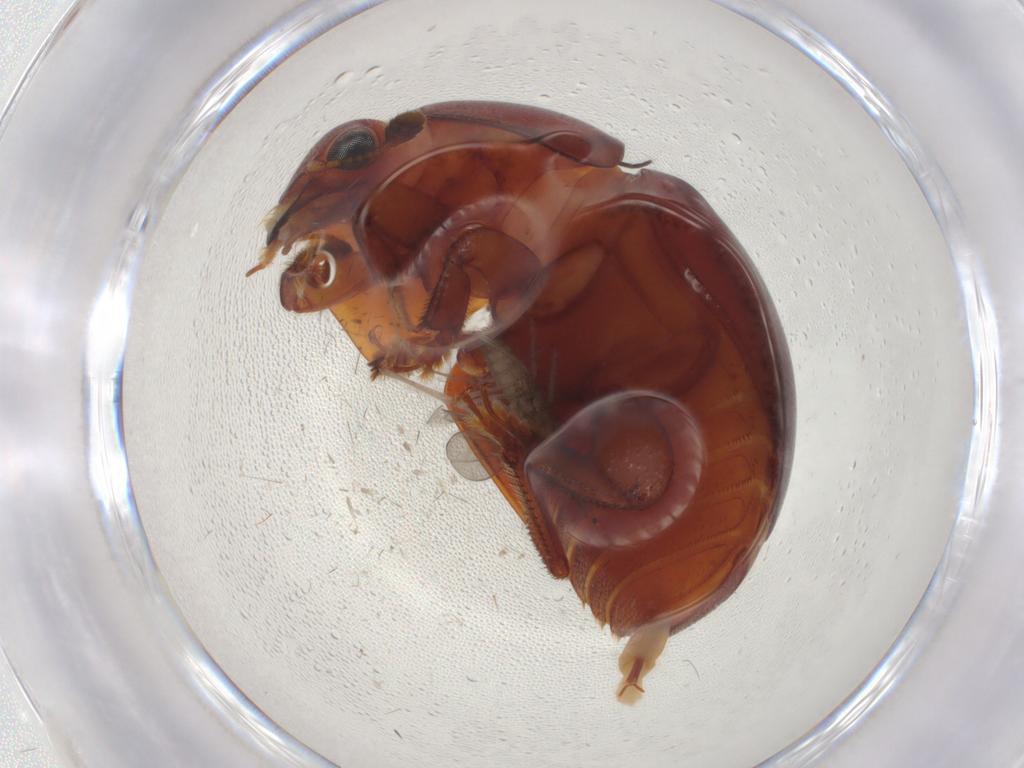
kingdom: Animalia
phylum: Arthropoda
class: Insecta
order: Diptera
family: Cecidomyiidae
